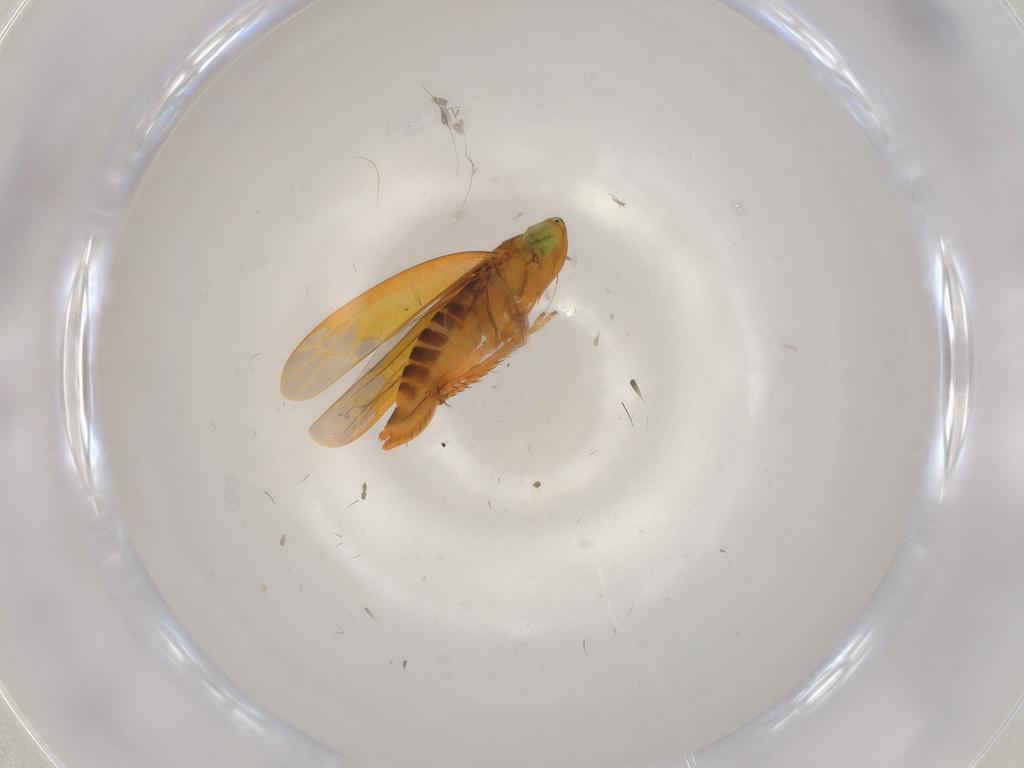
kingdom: Animalia
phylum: Arthropoda
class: Insecta
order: Hemiptera
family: Cicadellidae
